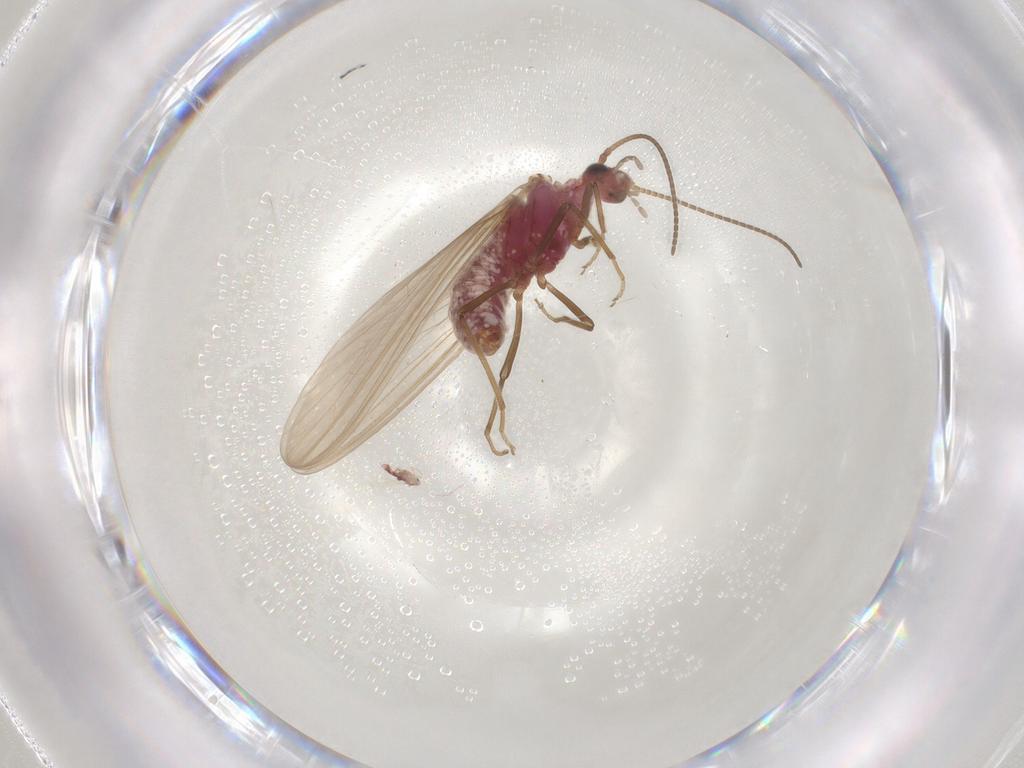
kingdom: Animalia
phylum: Arthropoda
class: Insecta
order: Neuroptera
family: Coniopterygidae
